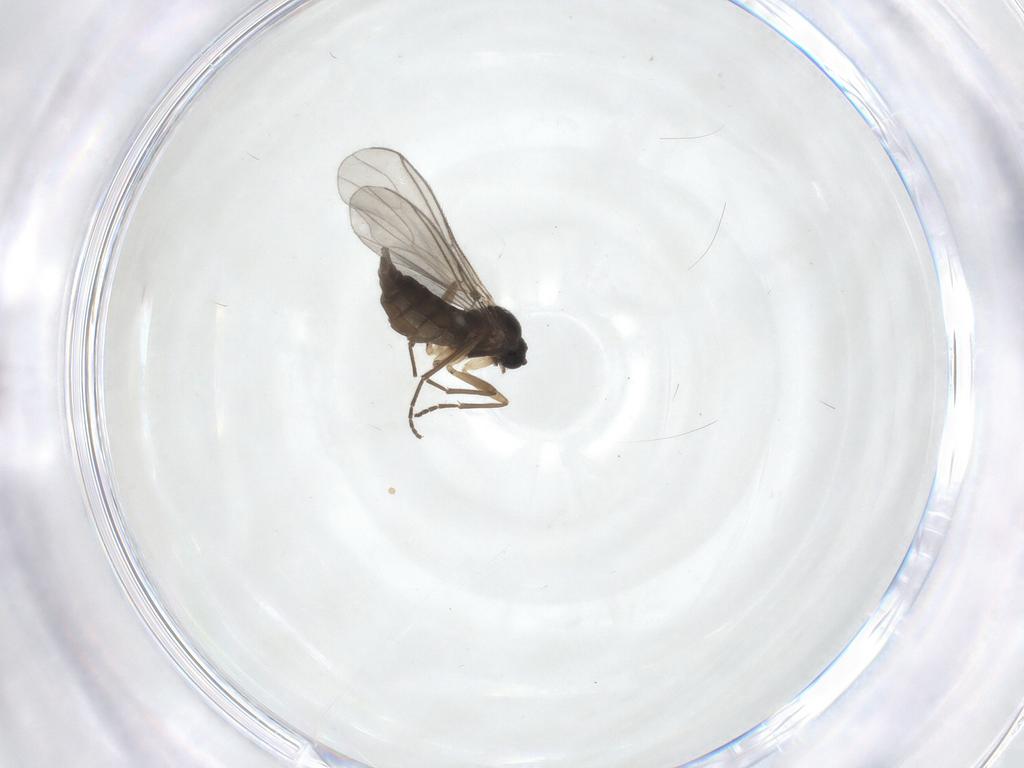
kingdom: Animalia
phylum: Arthropoda
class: Insecta
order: Diptera
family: Sciaridae
